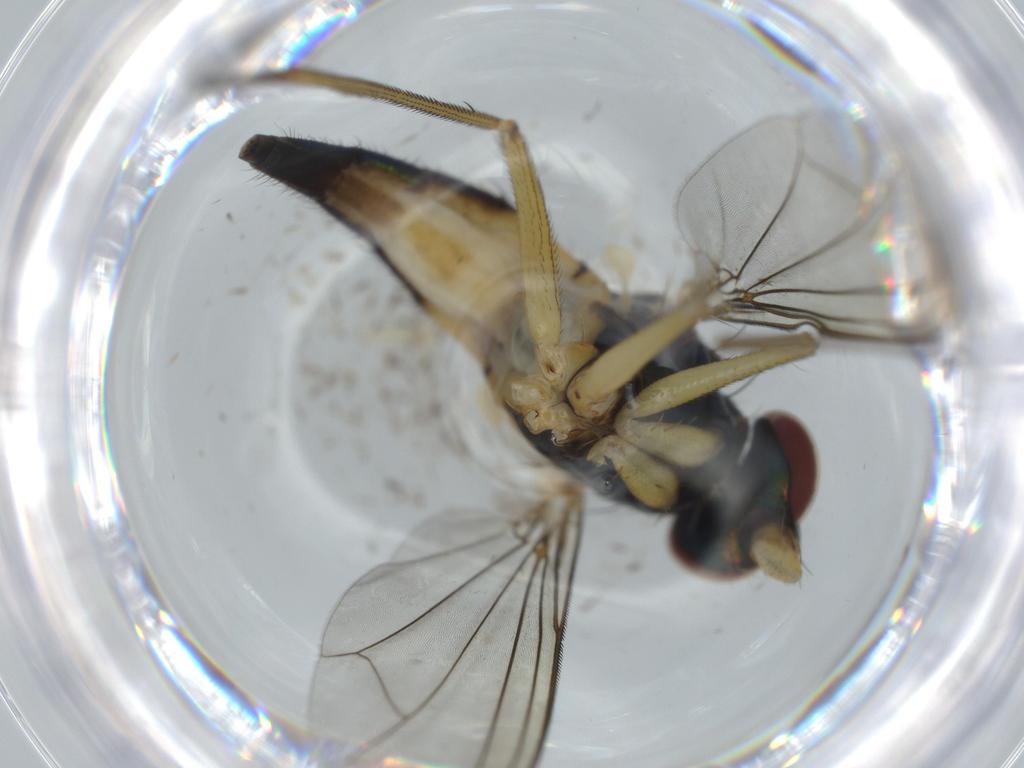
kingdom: Animalia
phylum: Arthropoda
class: Insecta
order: Diptera
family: Dolichopodidae
